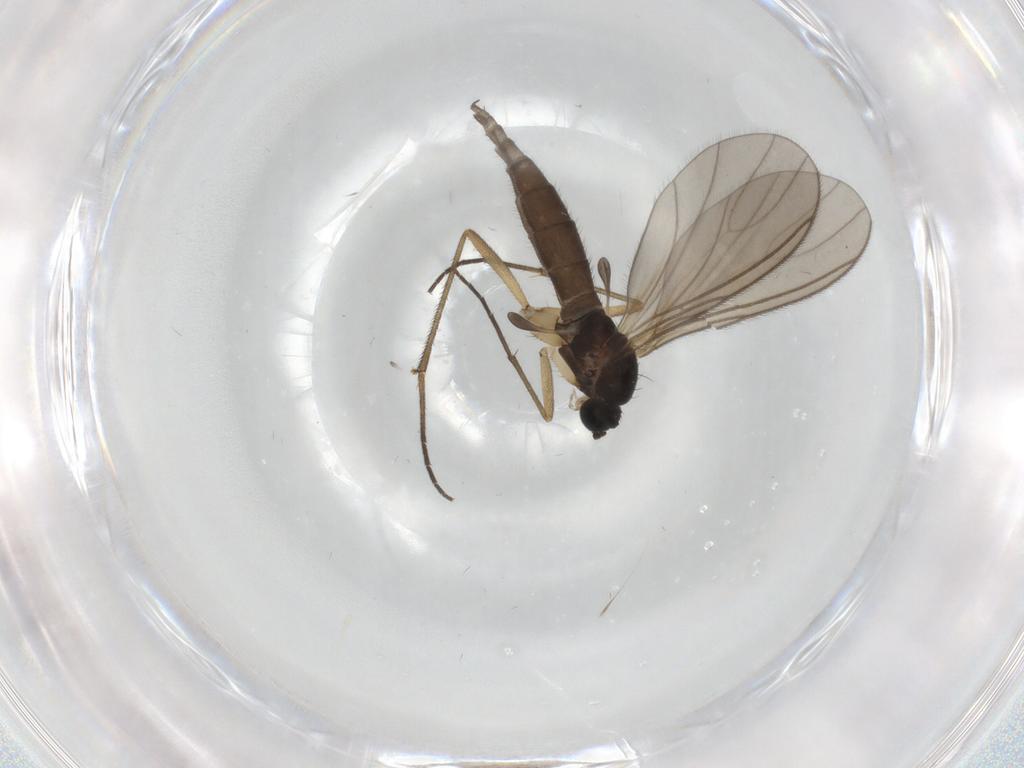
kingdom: Animalia
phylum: Arthropoda
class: Insecta
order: Diptera
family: Sciaridae
